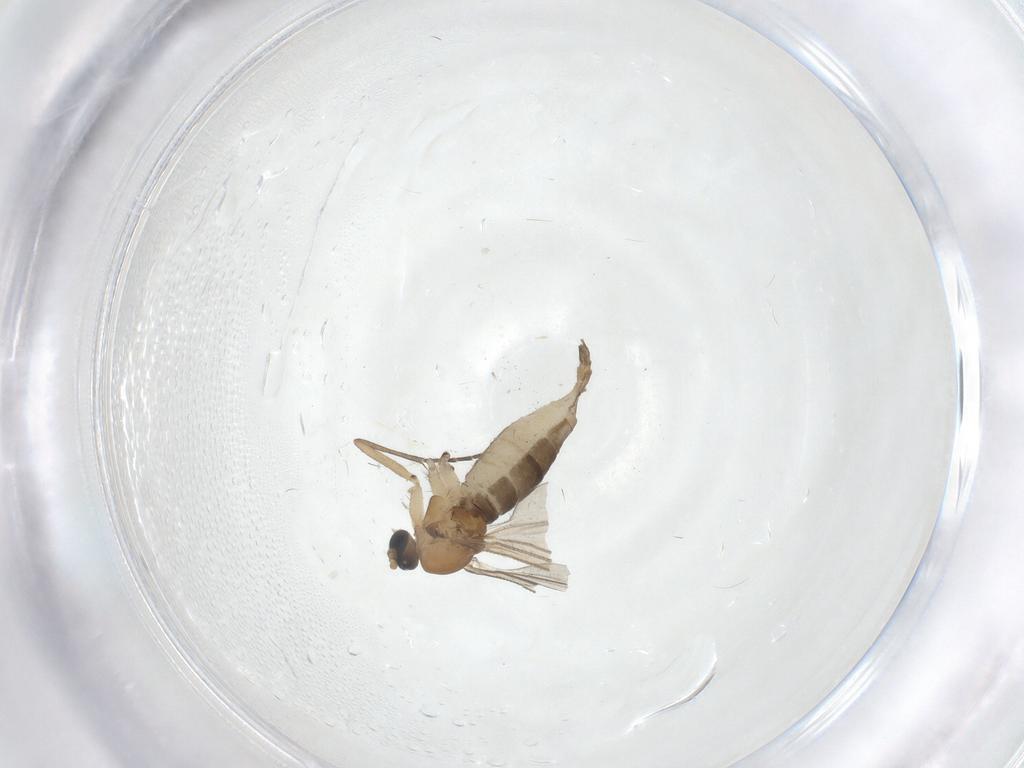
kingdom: Animalia
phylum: Arthropoda
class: Insecta
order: Diptera
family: Sciaridae
